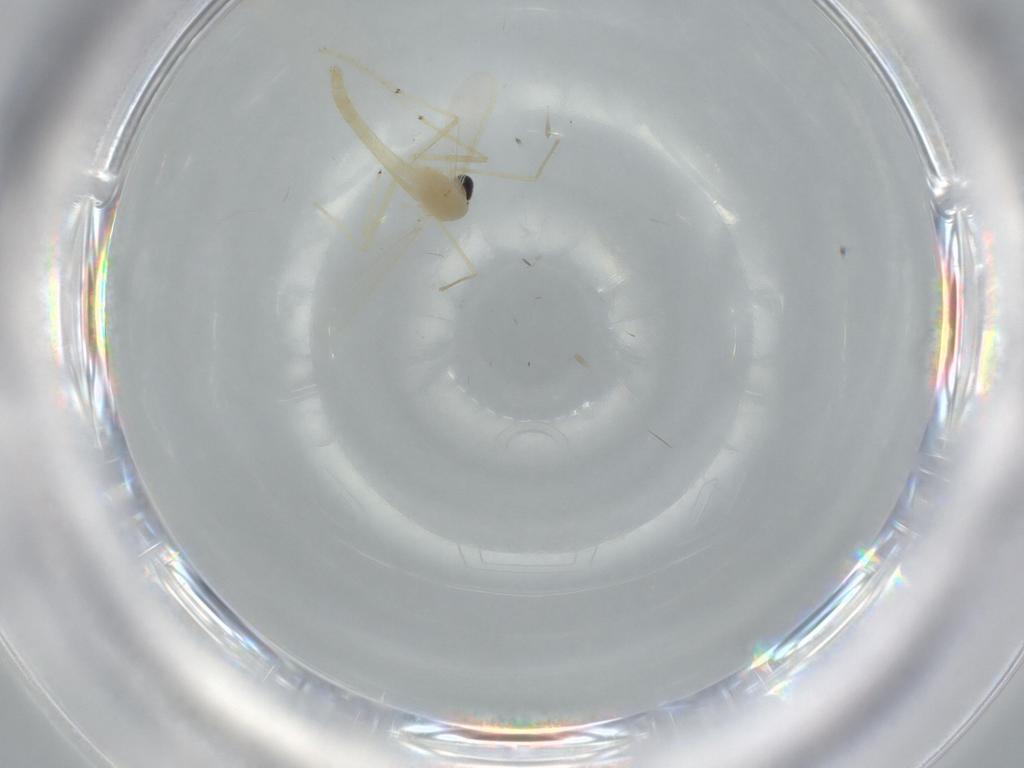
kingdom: Animalia
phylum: Arthropoda
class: Insecta
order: Diptera
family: Chironomidae
